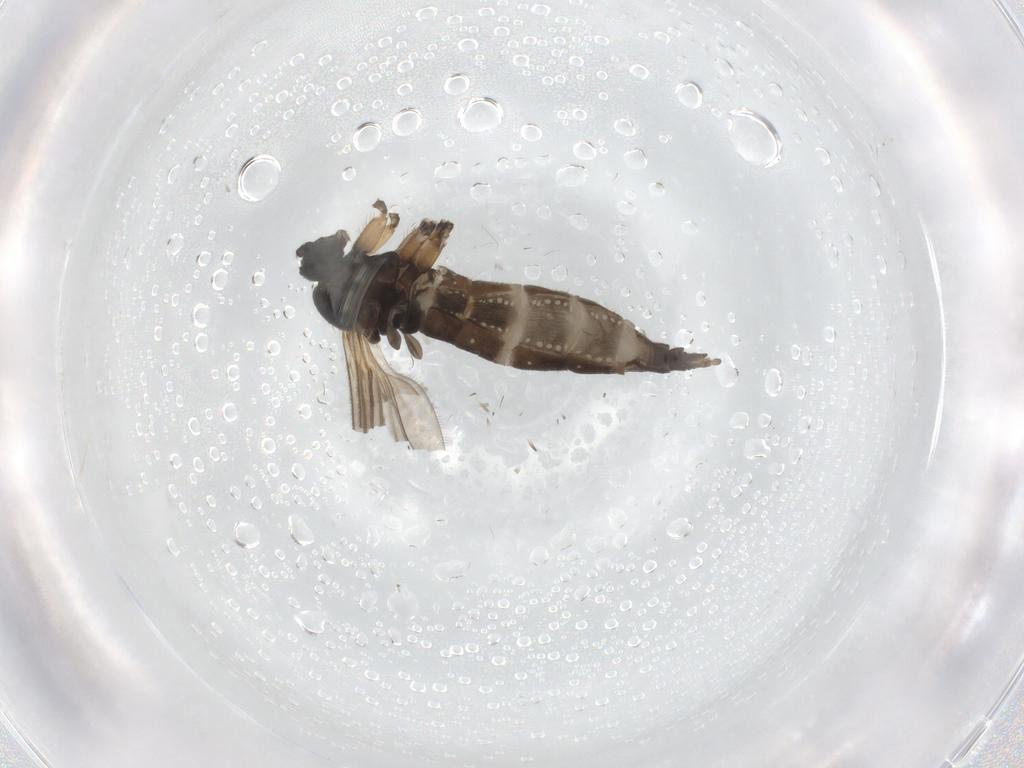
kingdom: Animalia
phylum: Arthropoda
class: Insecta
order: Diptera
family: Sciaridae
